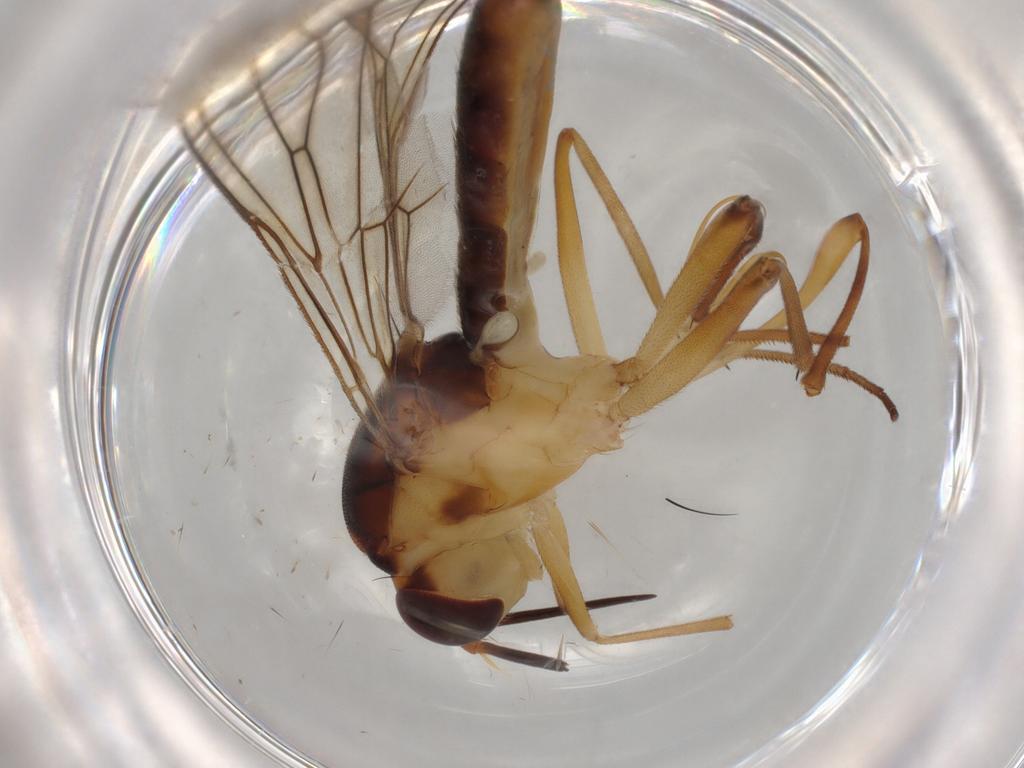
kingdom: Animalia
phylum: Arthropoda
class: Insecta
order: Diptera
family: Psilidae
